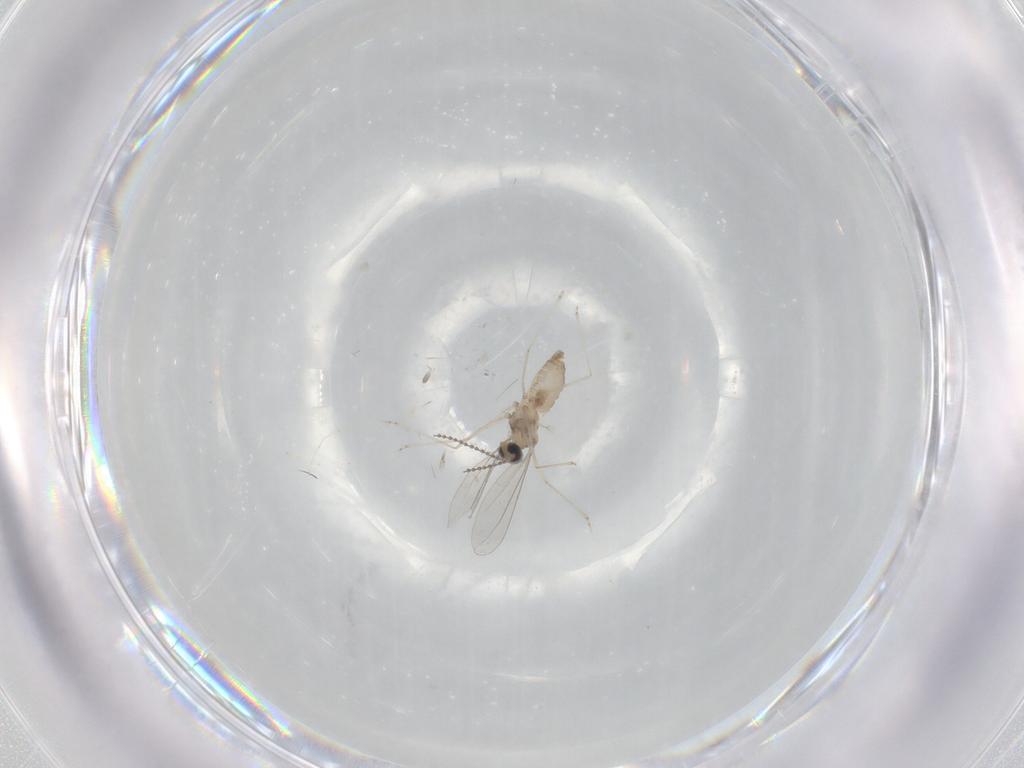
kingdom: Animalia
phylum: Arthropoda
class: Insecta
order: Diptera
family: Cecidomyiidae
